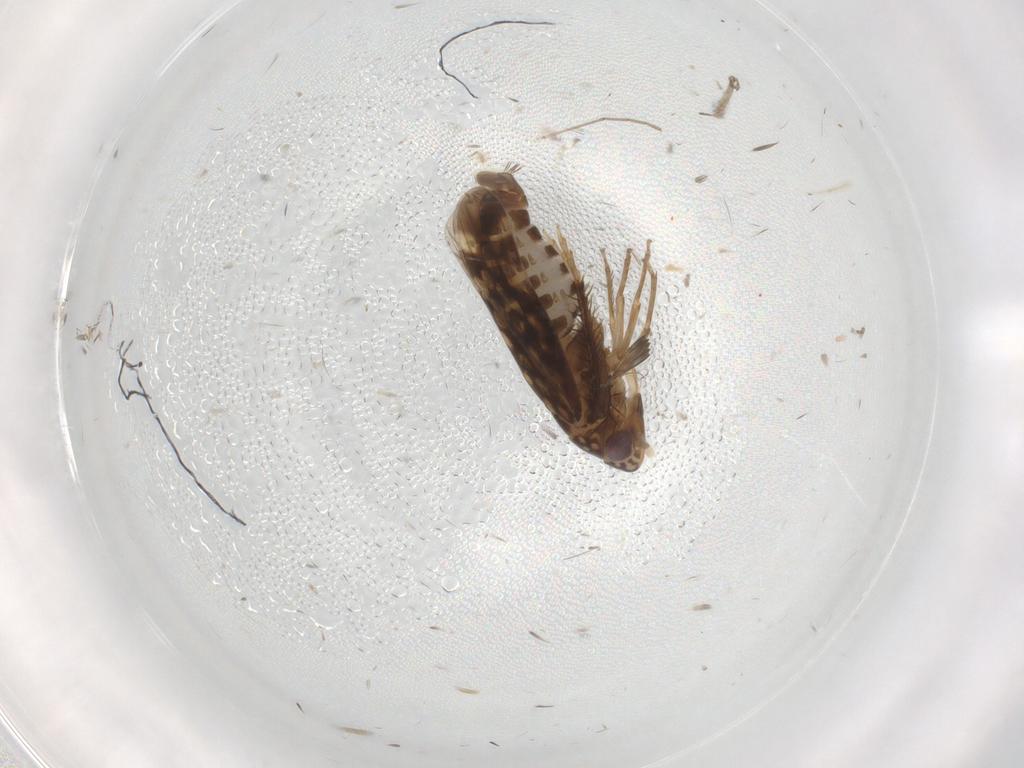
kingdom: Animalia
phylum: Arthropoda
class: Insecta
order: Hemiptera
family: Cicadellidae
